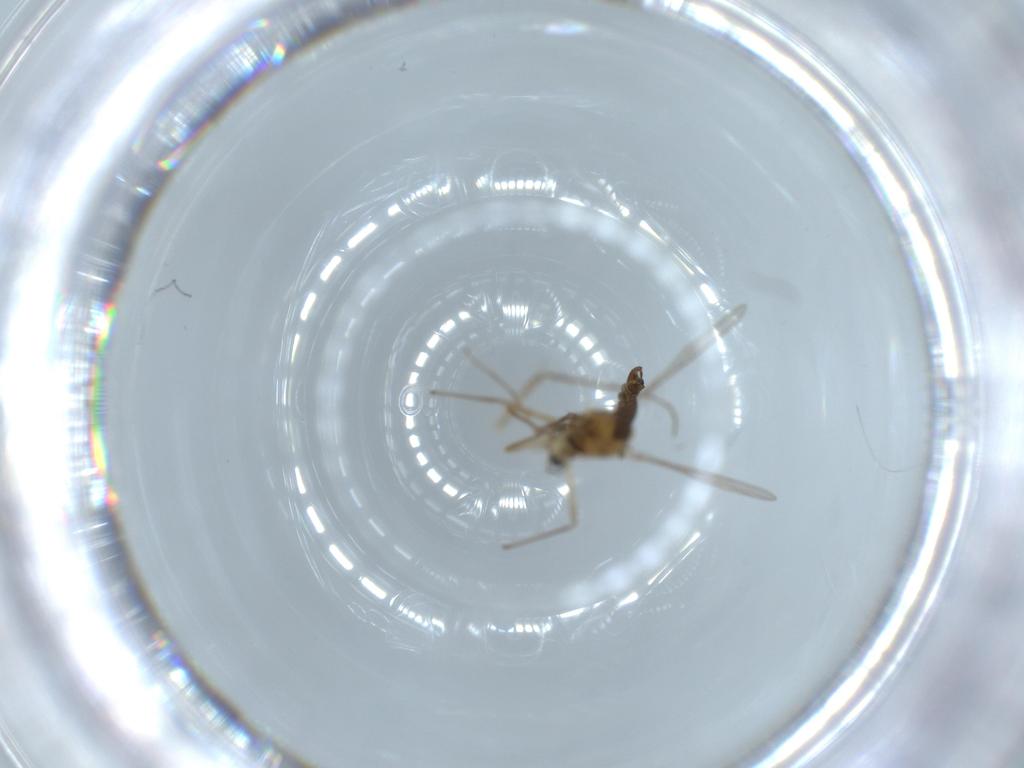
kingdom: Animalia
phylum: Arthropoda
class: Insecta
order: Diptera
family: Chironomidae
